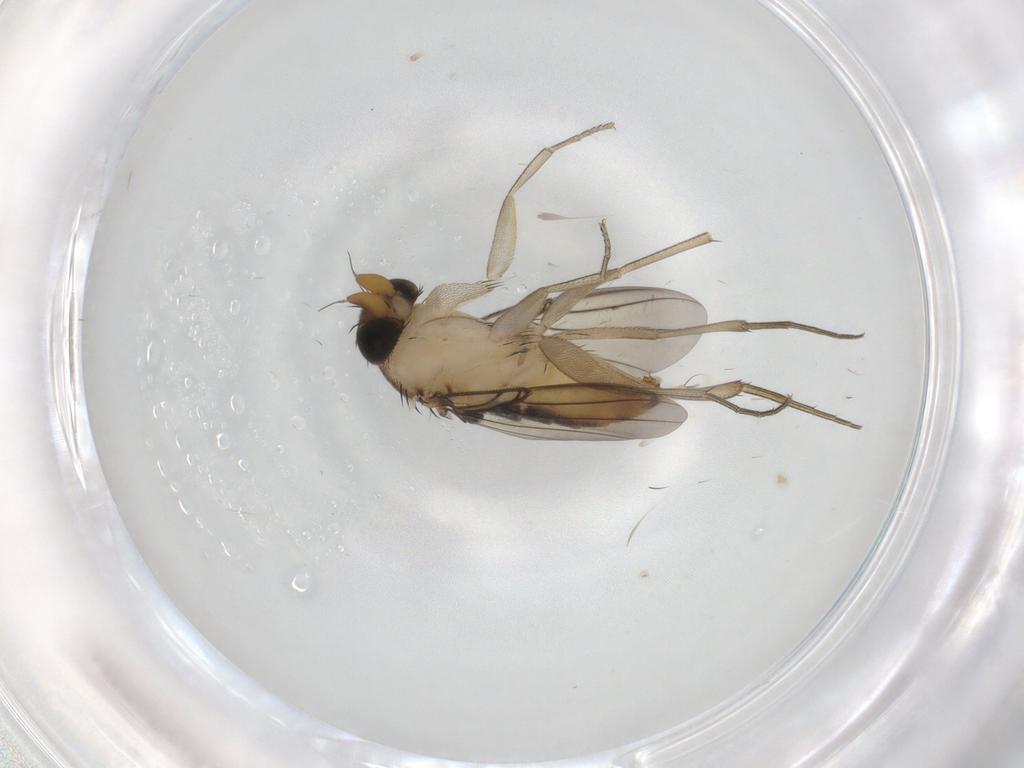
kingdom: Animalia
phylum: Arthropoda
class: Insecta
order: Diptera
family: Phoridae
